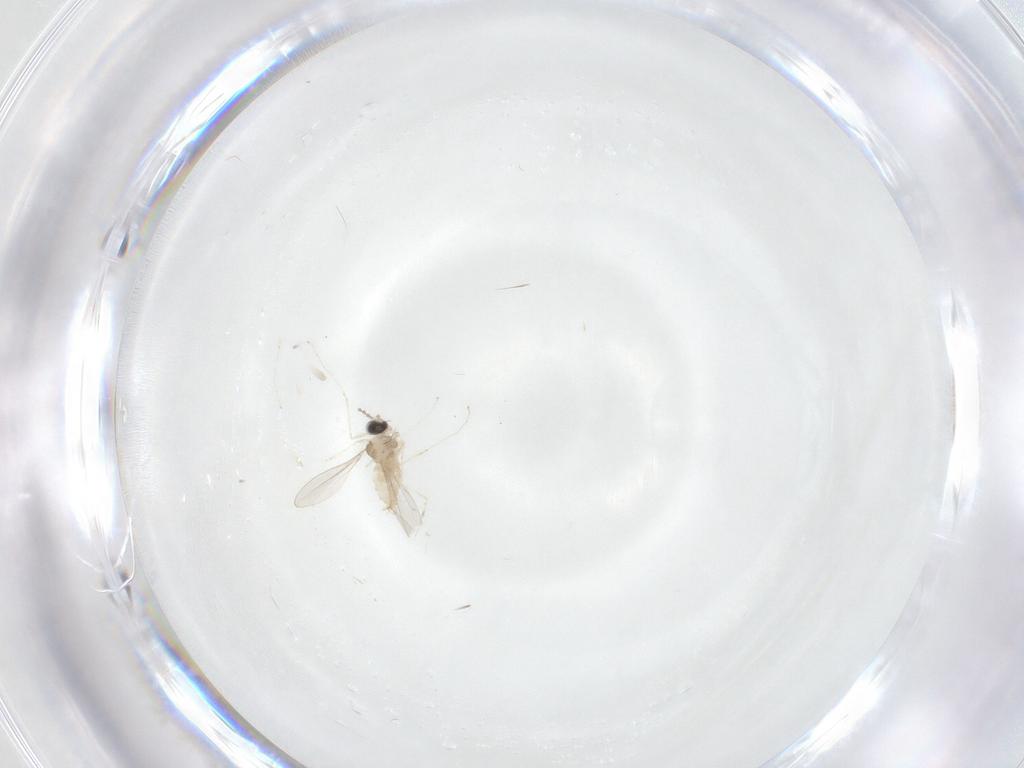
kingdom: Animalia
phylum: Arthropoda
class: Insecta
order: Diptera
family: Cecidomyiidae
